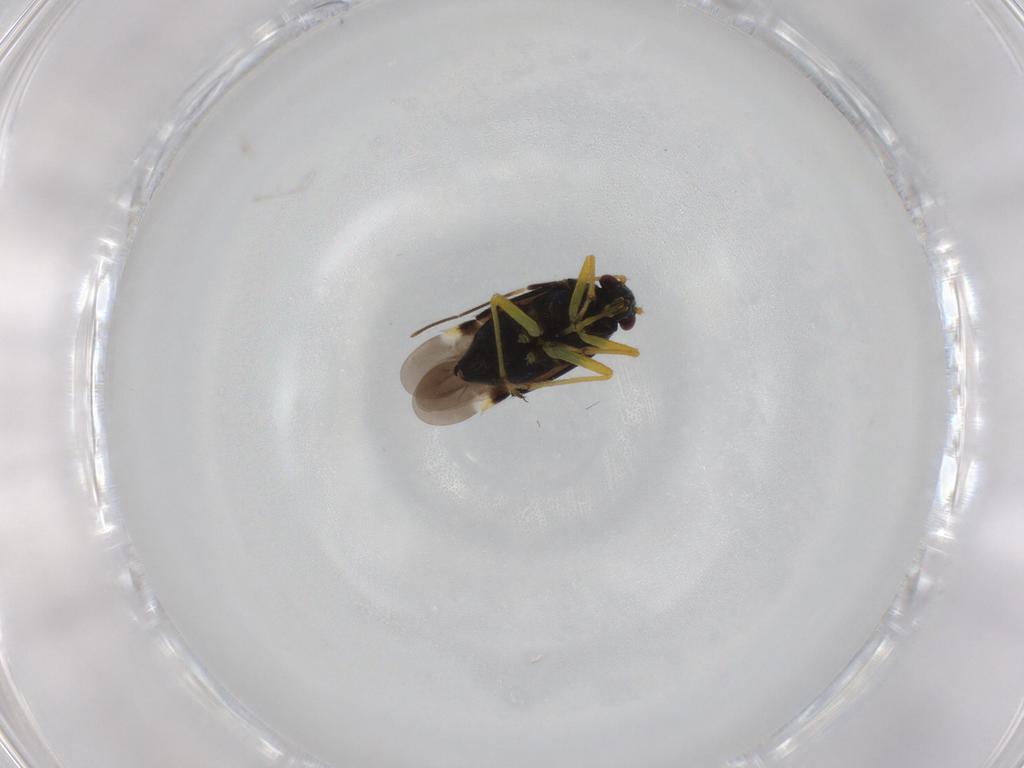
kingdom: Animalia
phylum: Arthropoda
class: Insecta
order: Hemiptera
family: Miridae
